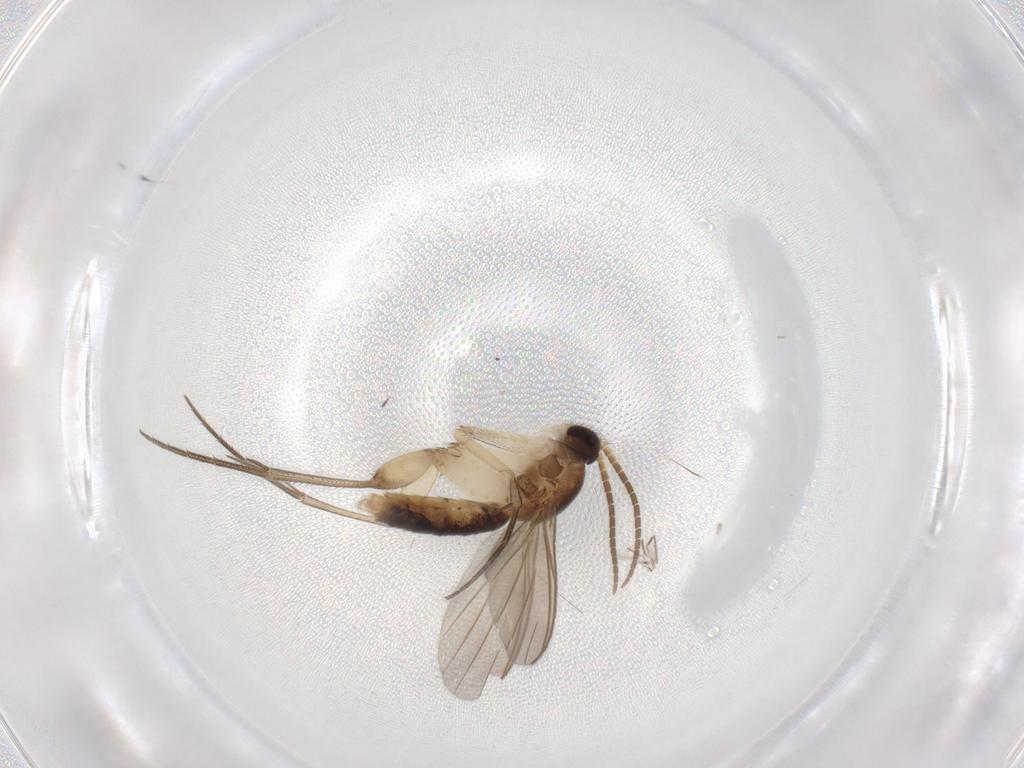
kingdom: Animalia
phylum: Arthropoda
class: Insecta
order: Diptera
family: Mycetophilidae
